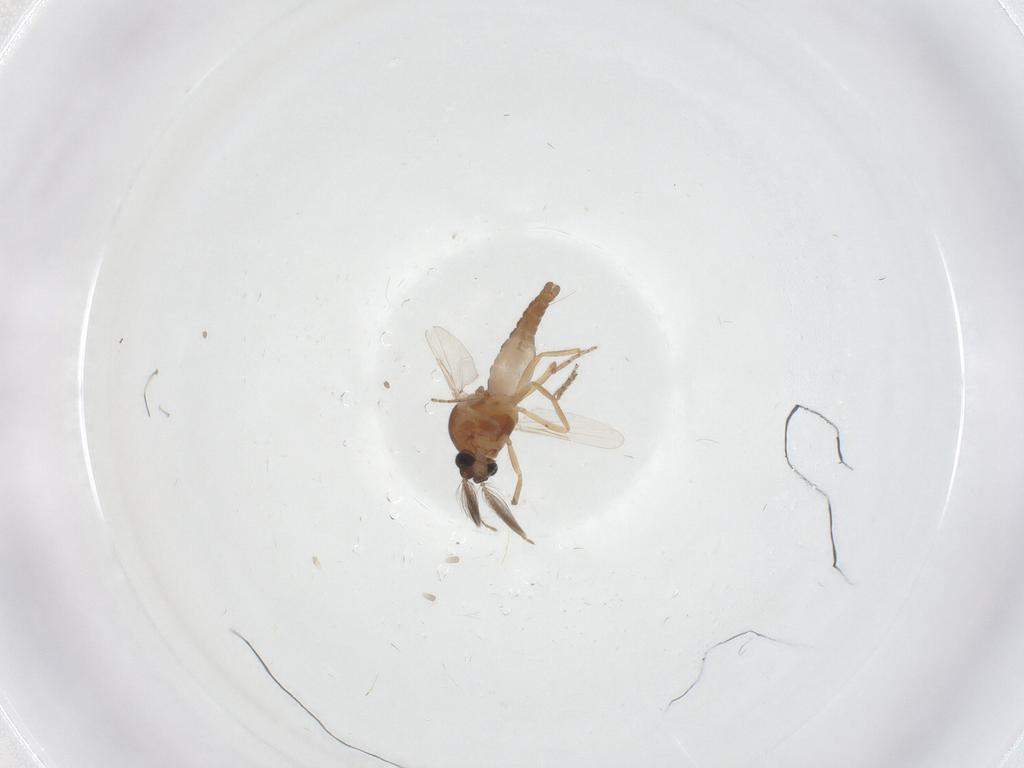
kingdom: Animalia
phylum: Arthropoda
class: Insecta
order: Diptera
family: Ceratopogonidae
